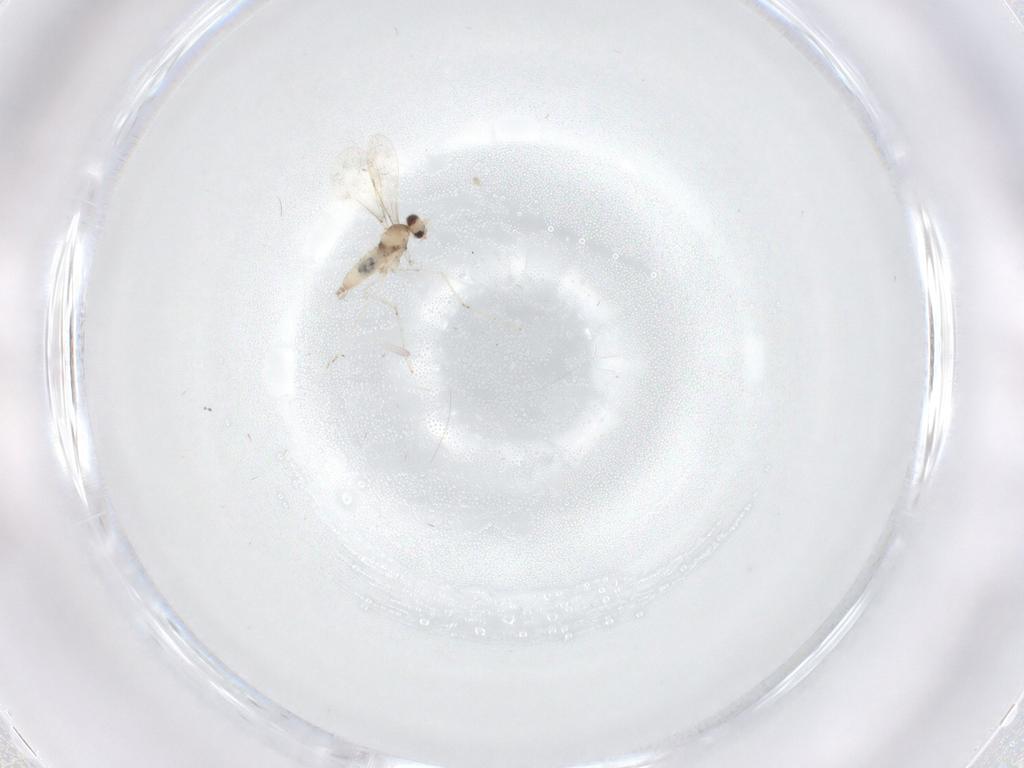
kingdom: Animalia
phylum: Arthropoda
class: Insecta
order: Diptera
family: Cecidomyiidae
